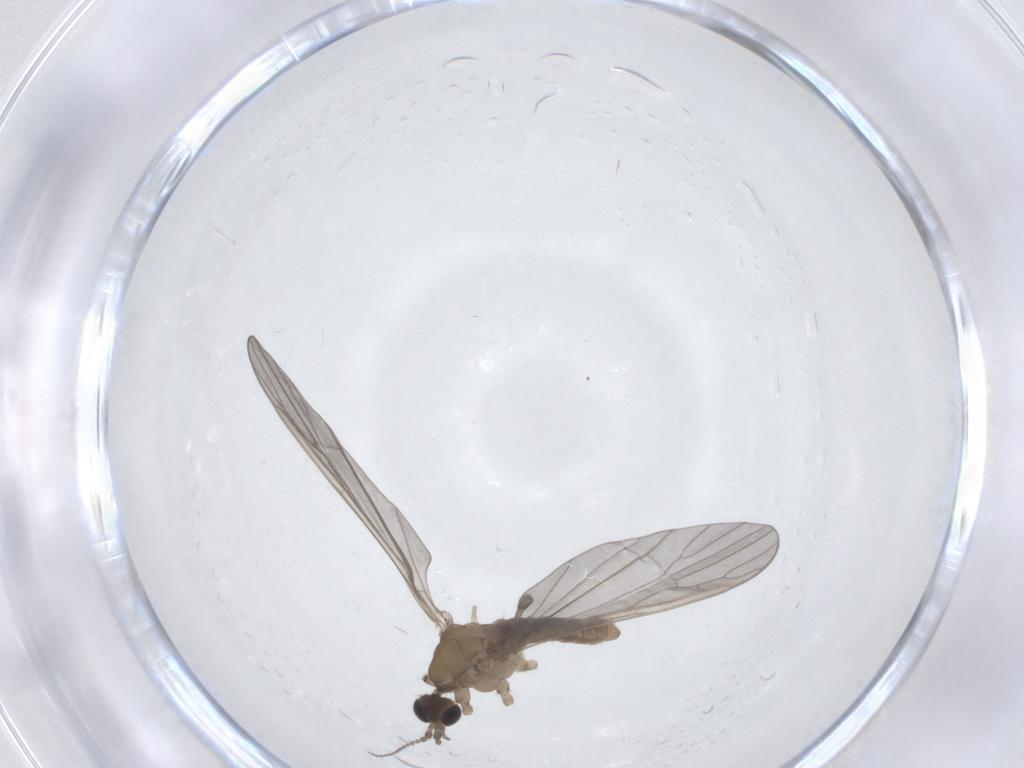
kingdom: Animalia
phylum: Arthropoda
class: Insecta
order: Diptera
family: Limoniidae
